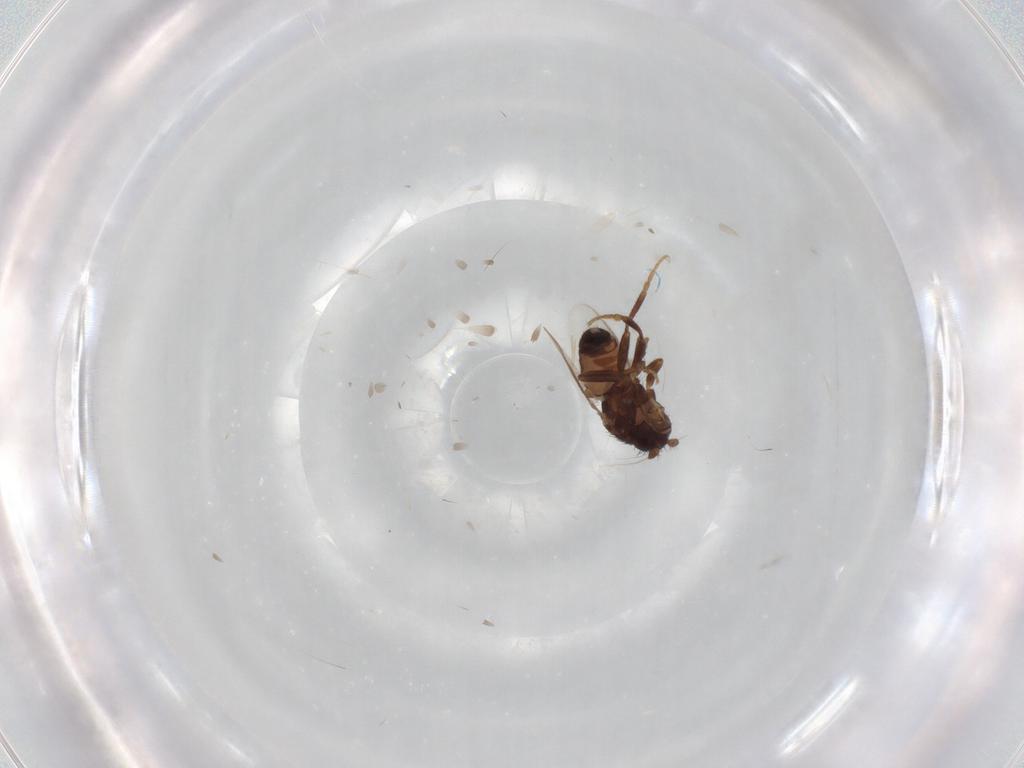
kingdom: Animalia
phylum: Arthropoda
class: Insecta
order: Diptera
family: Sphaeroceridae
